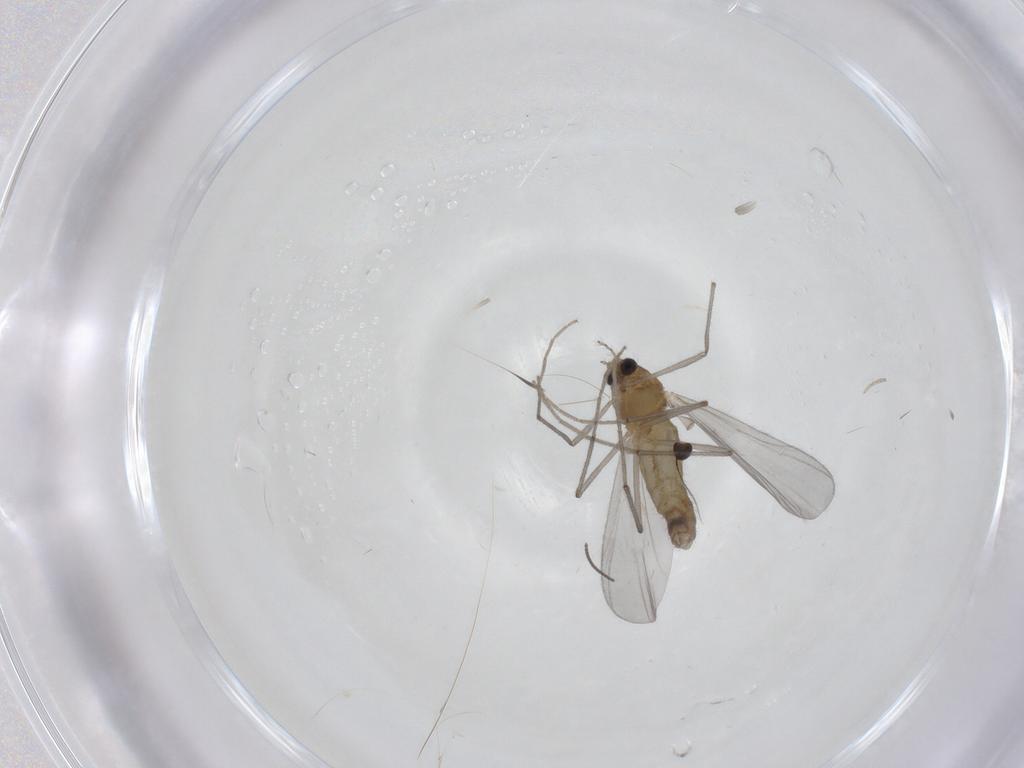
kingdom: Animalia
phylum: Arthropoda
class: Insecta
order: Diptera
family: Chironomidae
